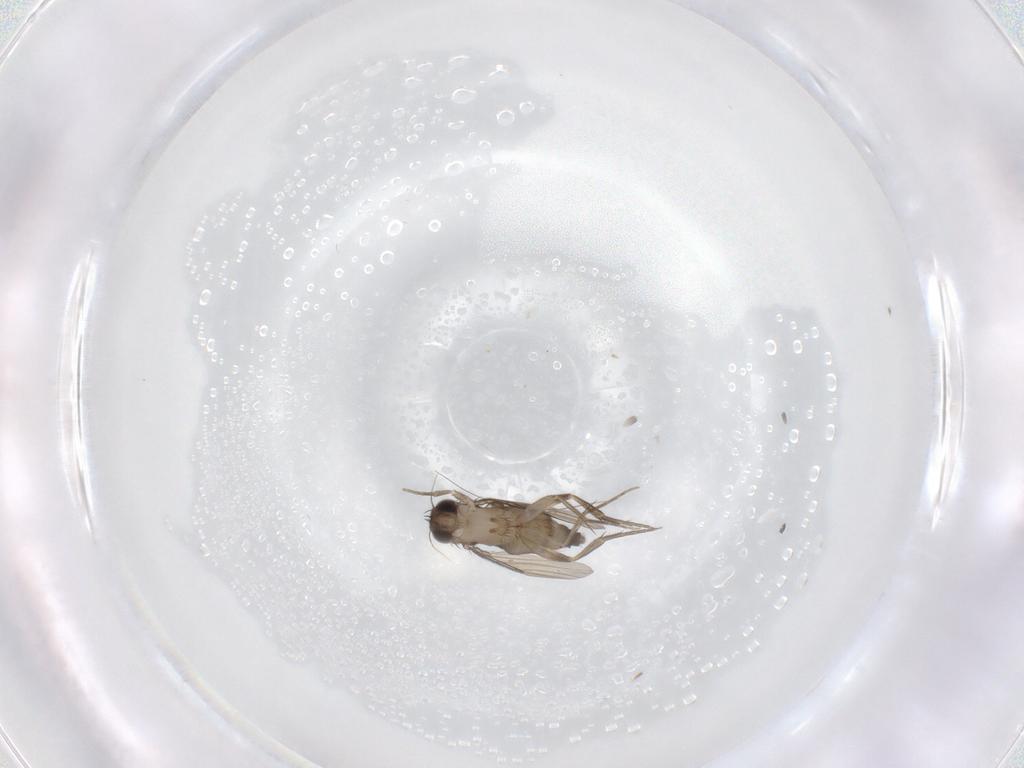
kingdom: Animalia
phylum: Arthropoda
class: Insecta
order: Diptera
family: Phoridae
